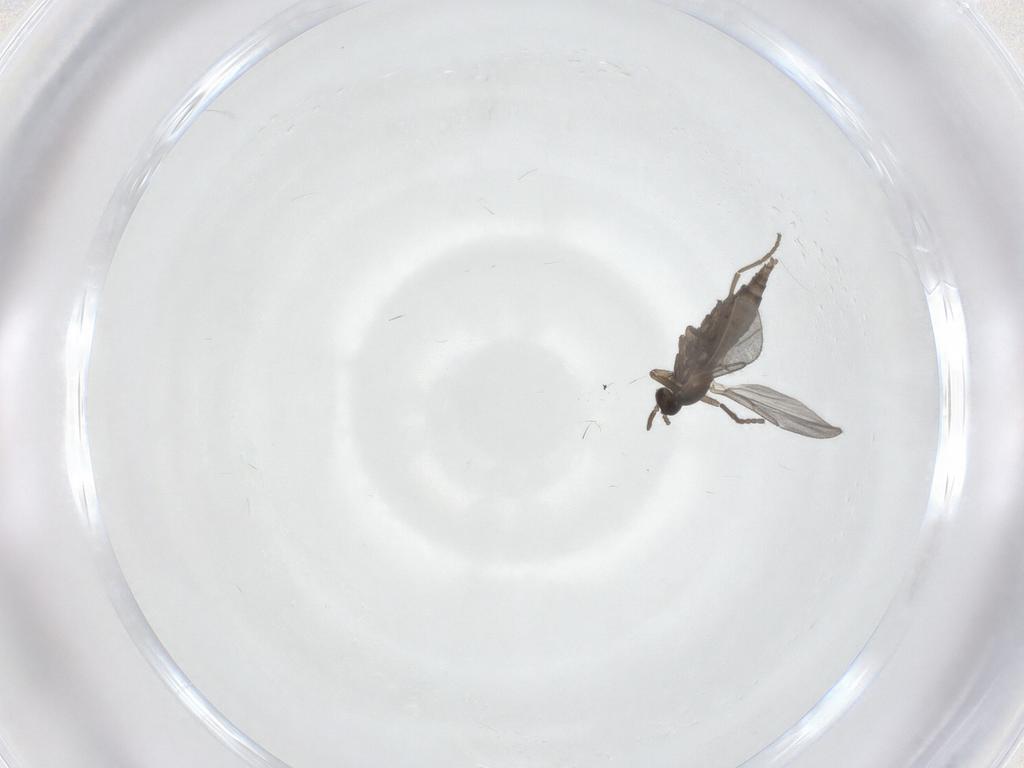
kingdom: Animalia
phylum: Arthropoda
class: Insecta
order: Diptera
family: Cecidomyiidae
